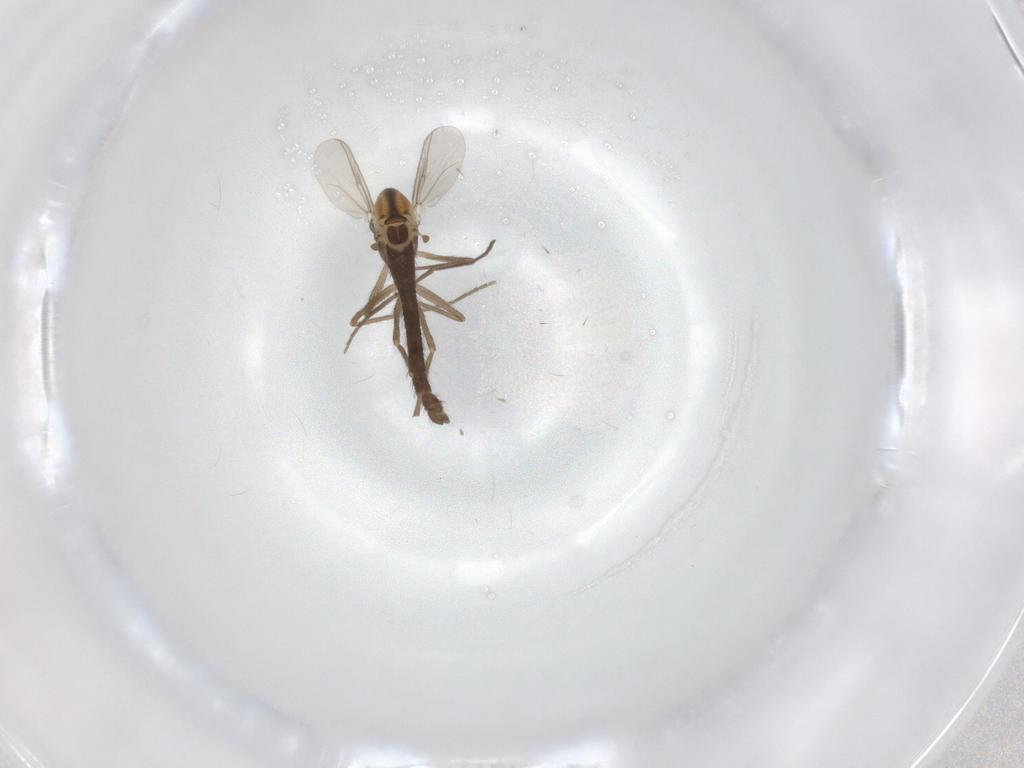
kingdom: Animalia
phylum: Arthropoda
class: Insecta
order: Diptera
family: Chironomidae
